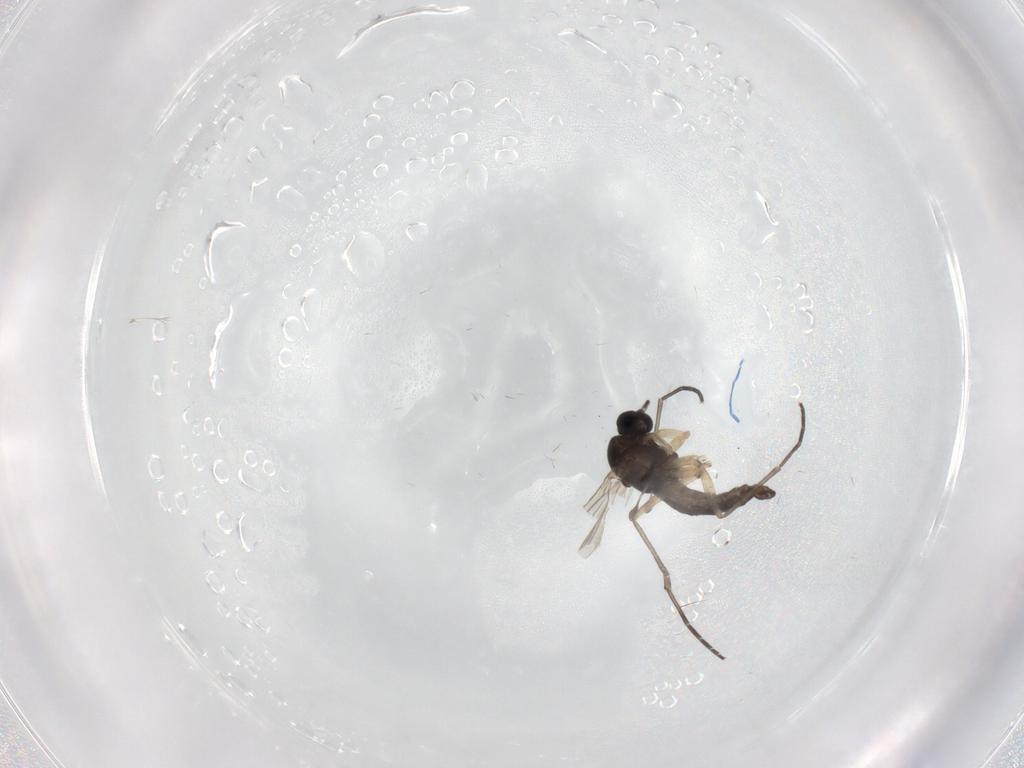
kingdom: Animalia
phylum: Arthropoda
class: Insecta
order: Diptera
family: Sciaridae
